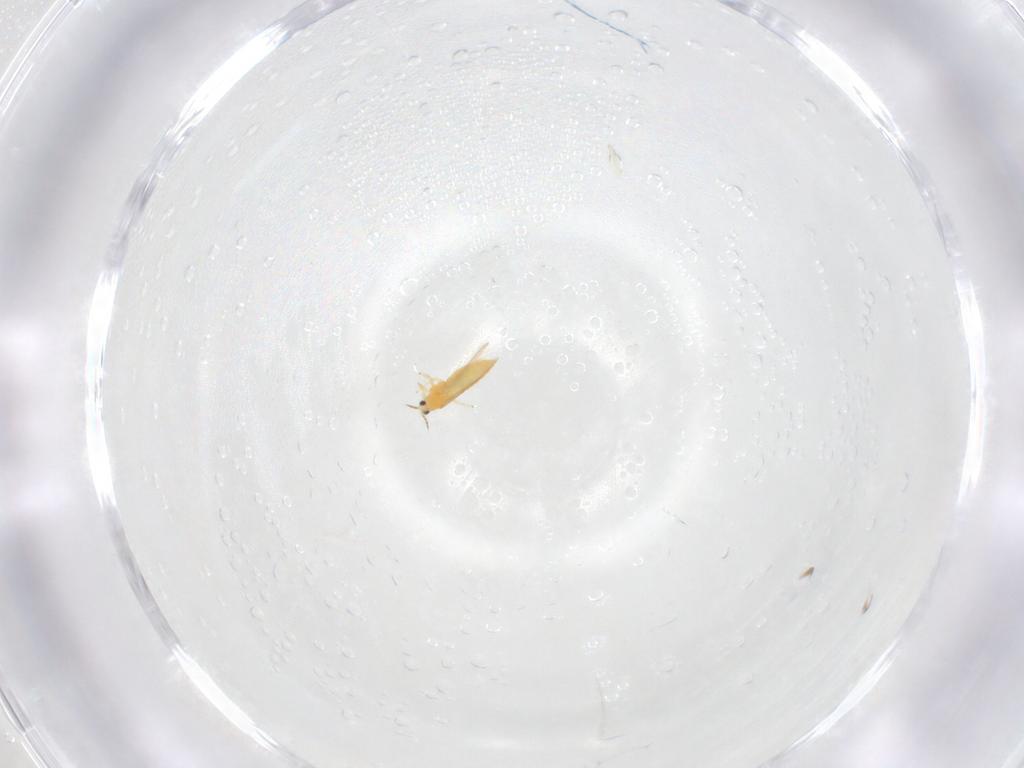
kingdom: Animalia
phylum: Arthropoda
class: Insecta
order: Thysanoptera
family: Thripidae
